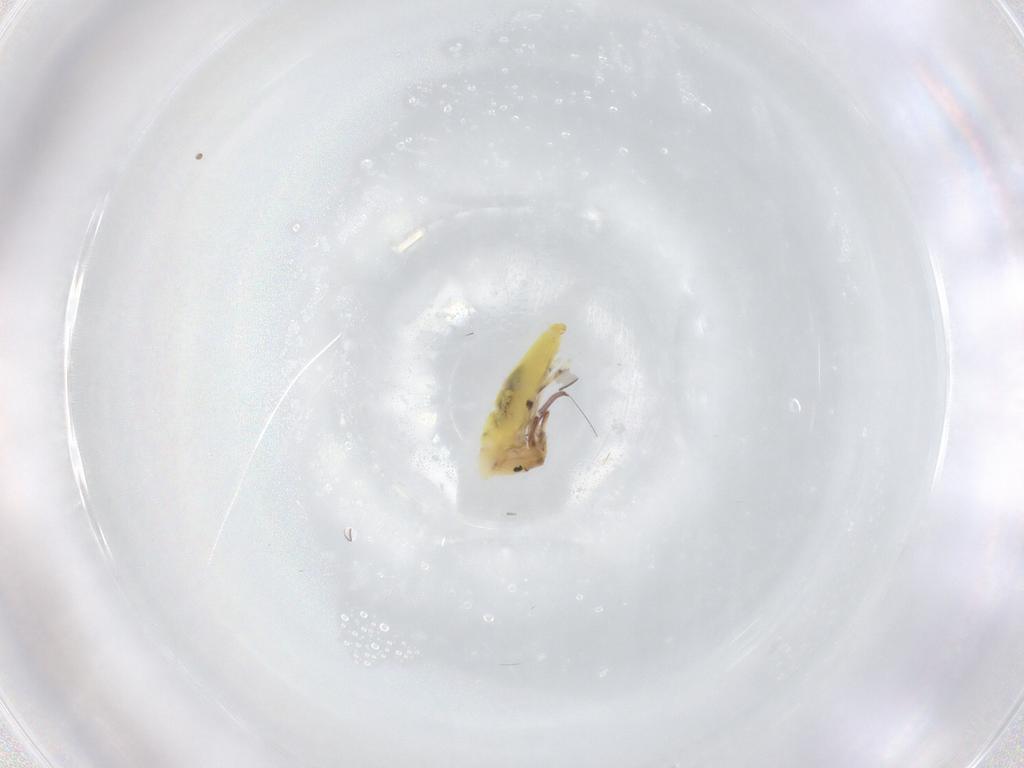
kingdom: Animalia
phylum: Arthropoda
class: Collembola
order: Entomobryomorpha
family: Entomobryidae
